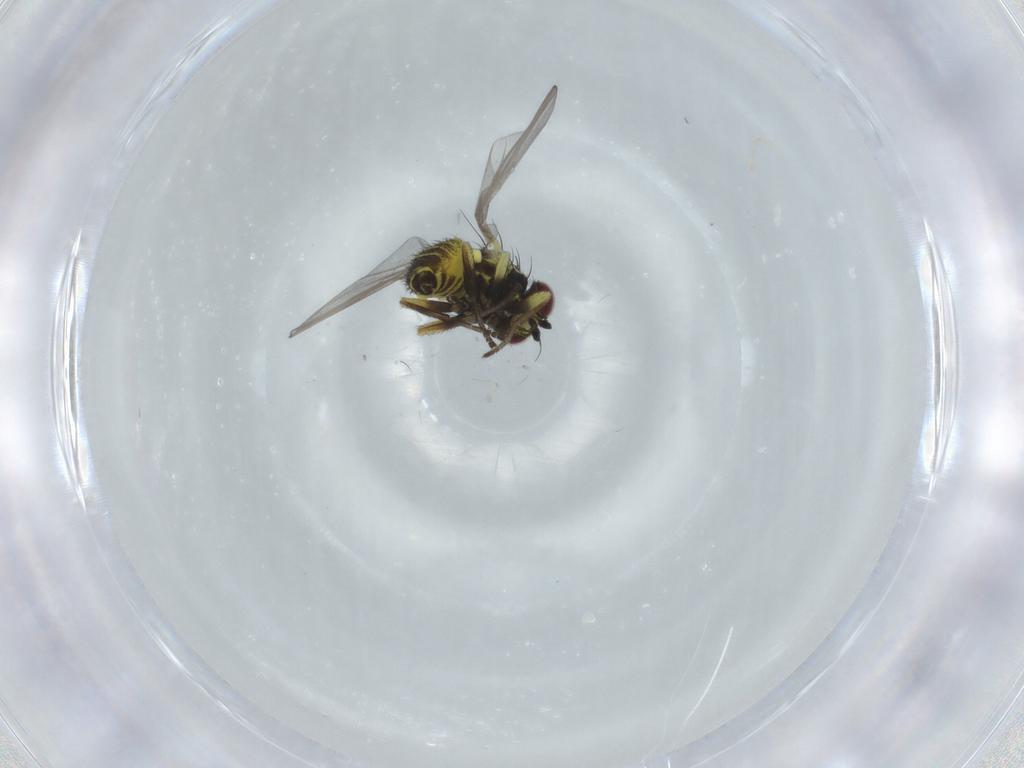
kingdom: Animalia
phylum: Arthropoda
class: Insecta
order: Diptera
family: Agromyzidae
